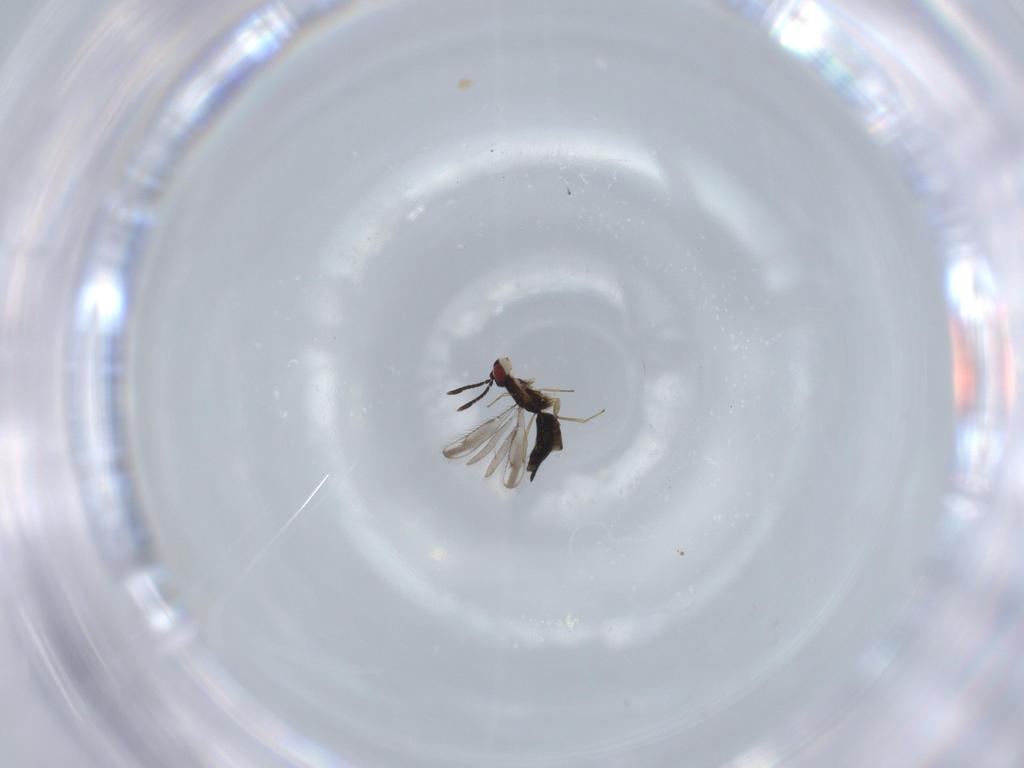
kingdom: Animalia
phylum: Arthropoda
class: Insecta
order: Hymenoptera
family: Pteromalidae
